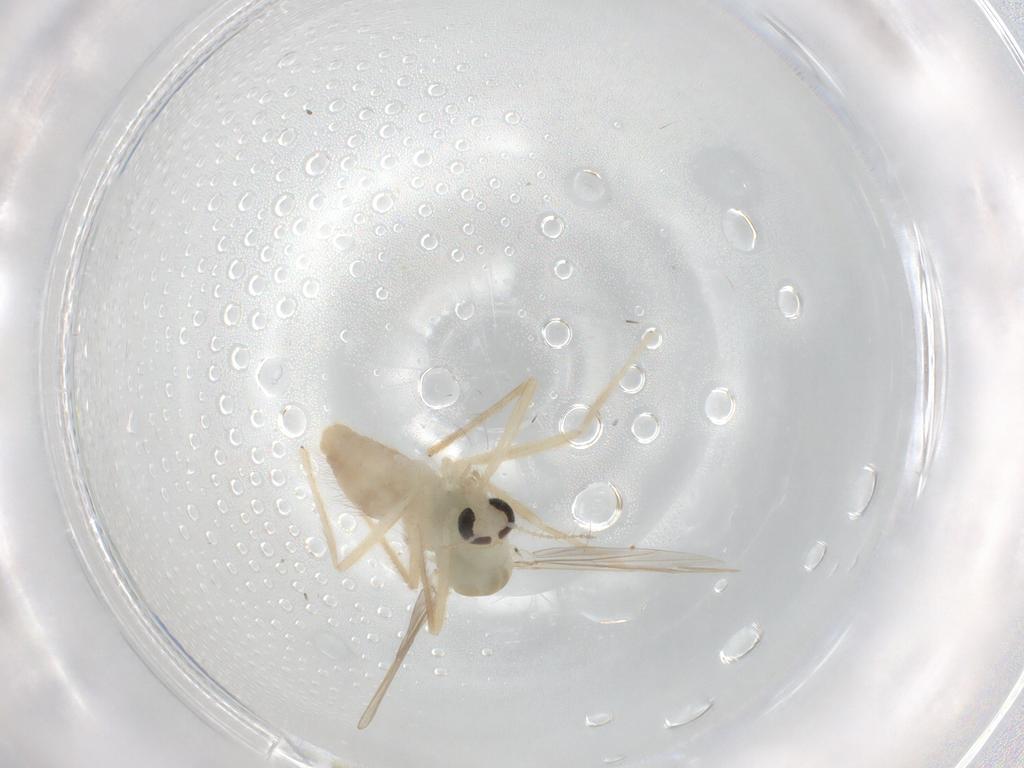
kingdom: Animalia
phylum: Arthropoda
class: Insecta
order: Diptera
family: Chironomidae
